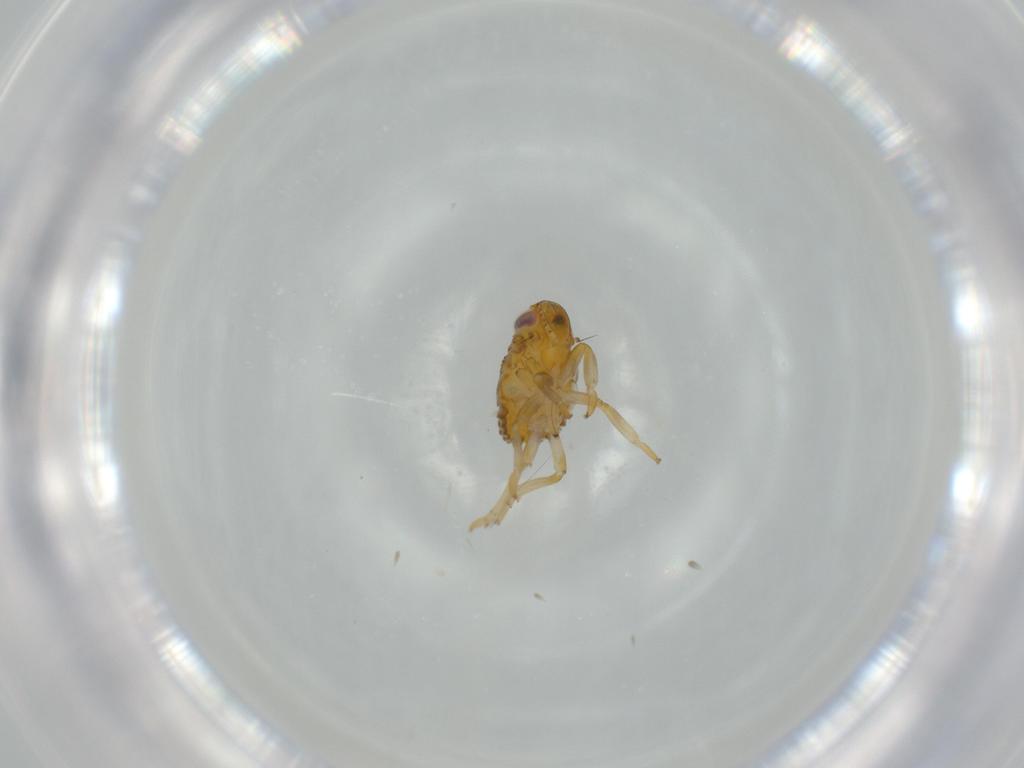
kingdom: Animalia
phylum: Arthropoda
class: Insecta
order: Hemiptera
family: Issidae
